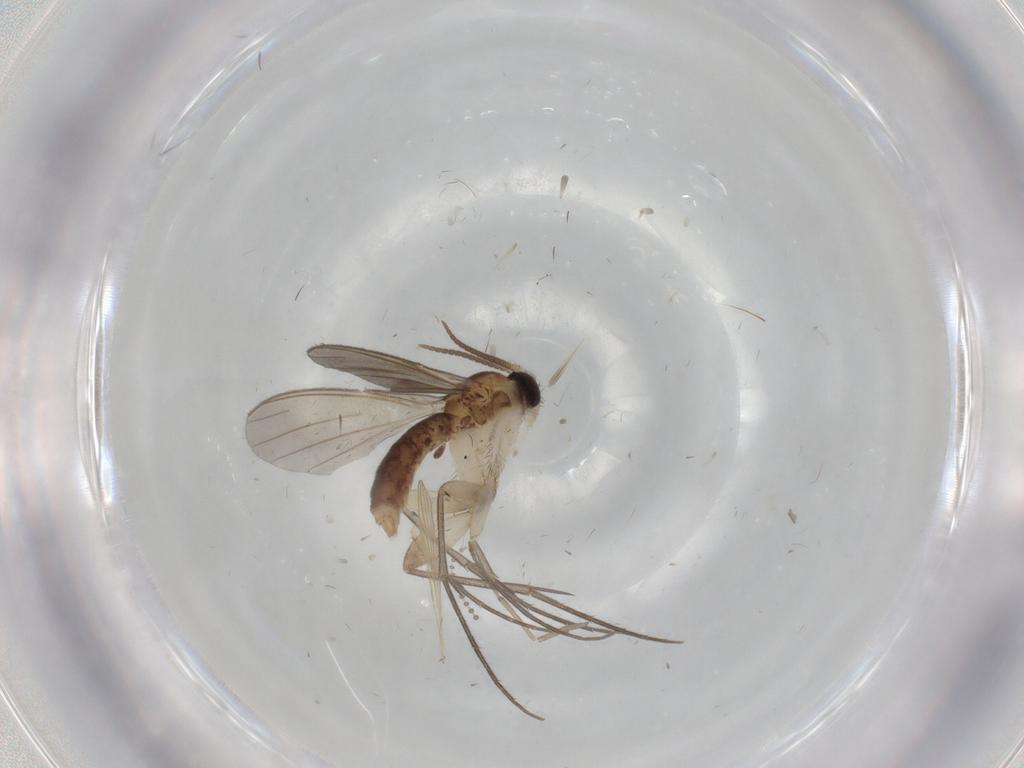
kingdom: Animalia
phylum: Arthropoda
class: Insecta
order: Diptera
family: Mycetophilidae
